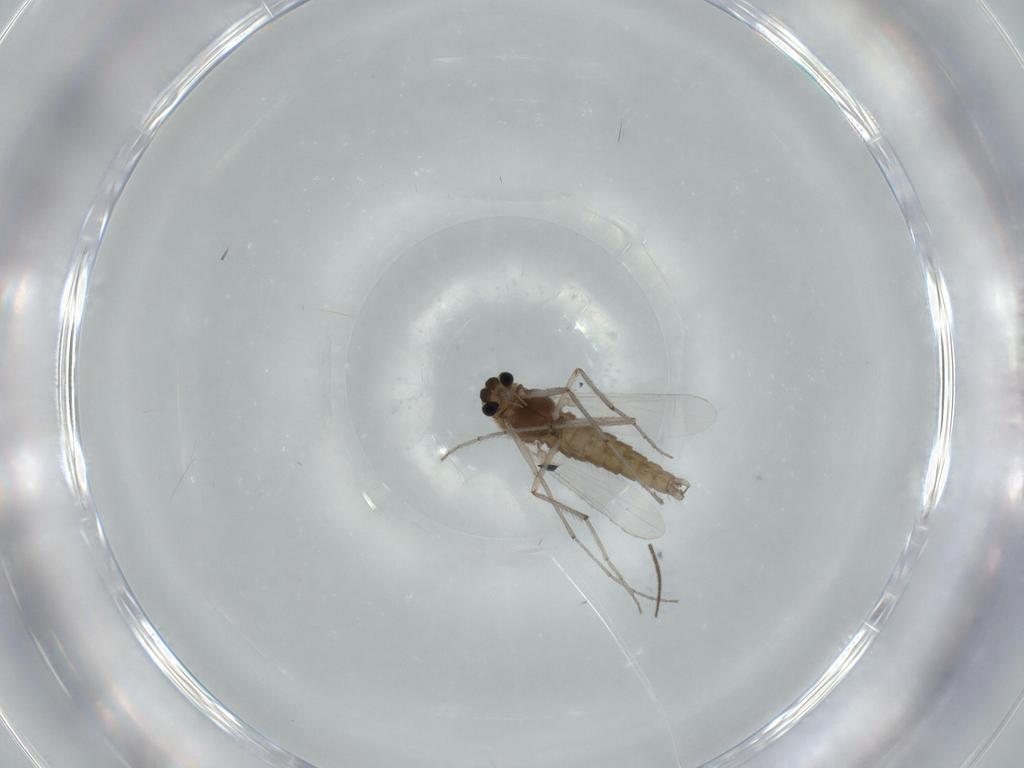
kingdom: Animalia
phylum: Arthropoda
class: Insecta
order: Diptera
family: Chironomidae
